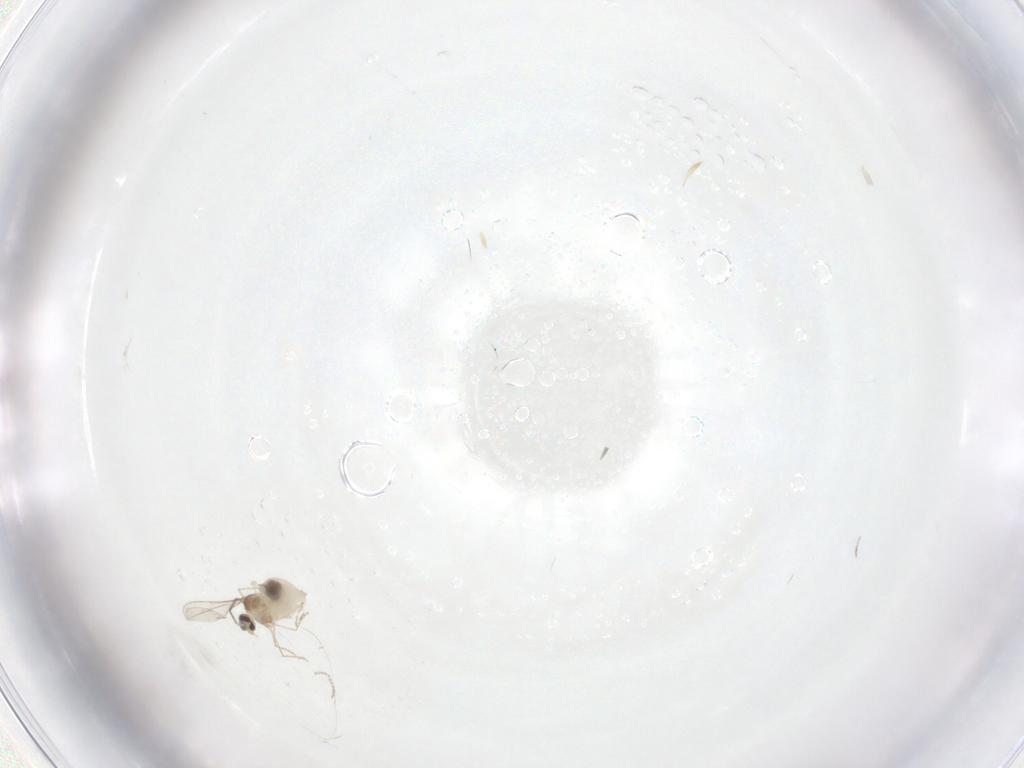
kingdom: Animalia
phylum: Arthropoda
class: Insecta
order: Diptera
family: Cecidomyiidae
